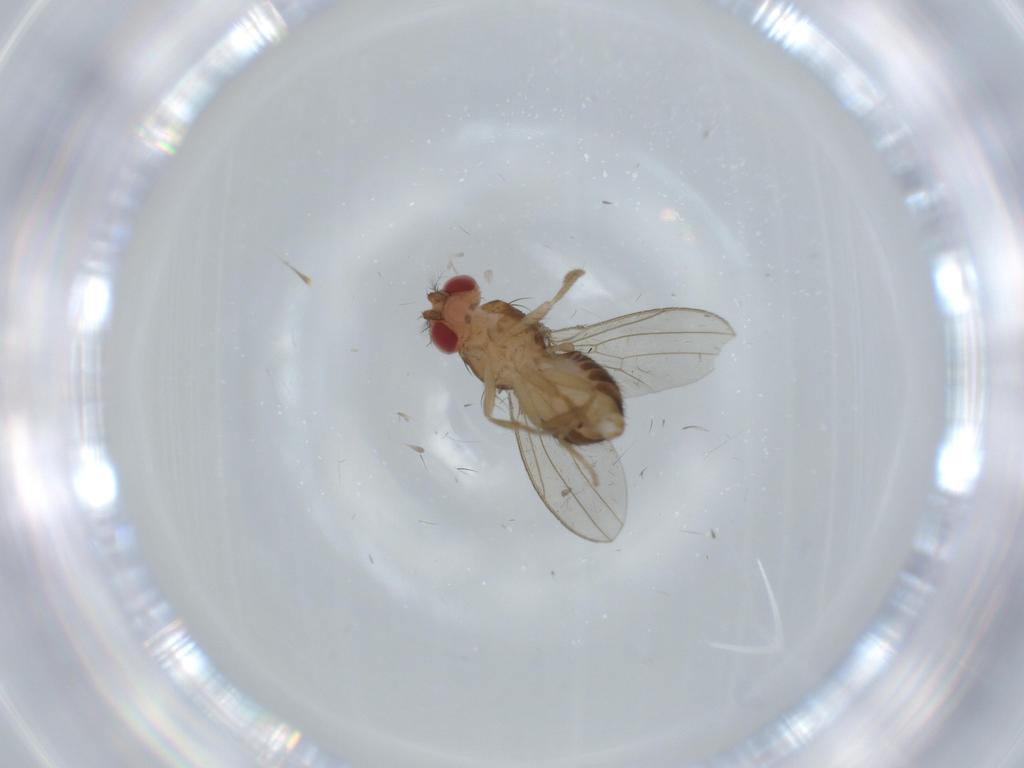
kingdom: Animalia
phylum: Arthropoda
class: Insecta
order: Diptera
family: Drosophilidae
